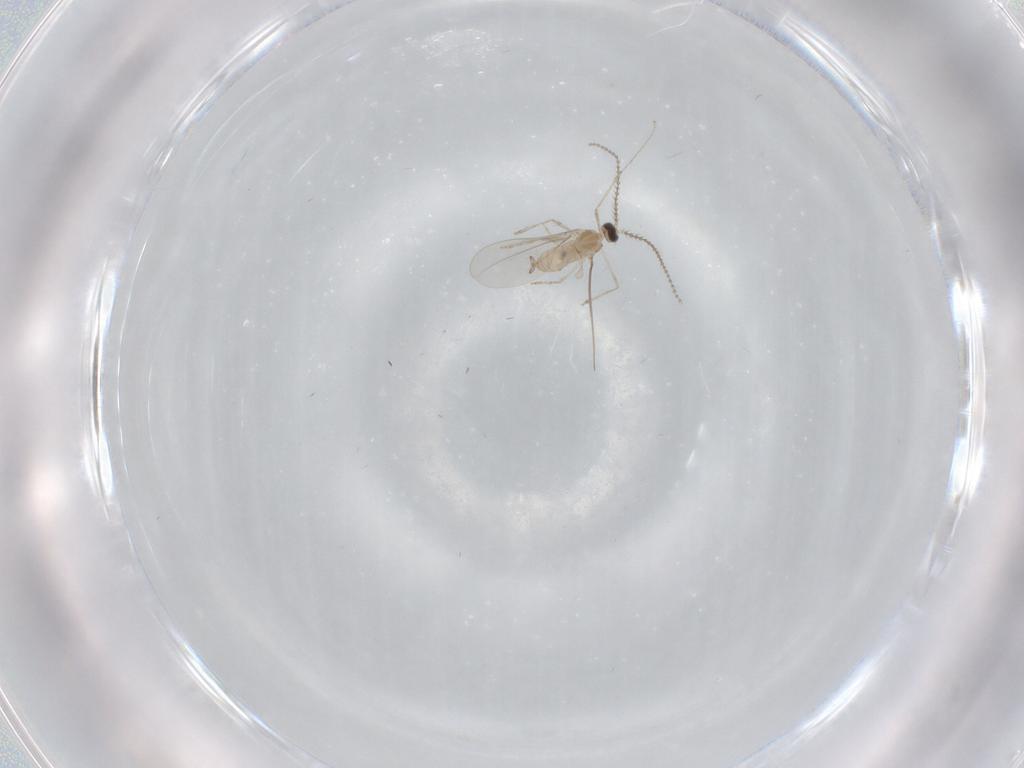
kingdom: Animalia
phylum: Arthropoda
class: Insecta
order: Diptera
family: Cecidomyiidae
